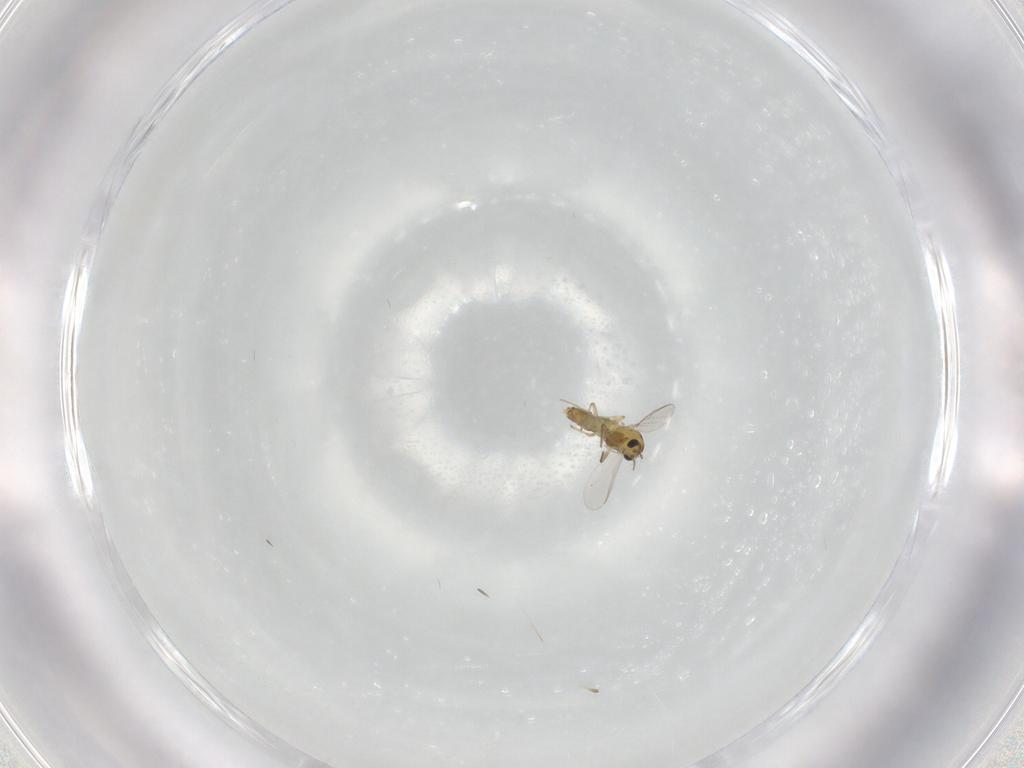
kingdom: Animalia
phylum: Arthropoda
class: Insecta
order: Diptera
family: Chironomidae
